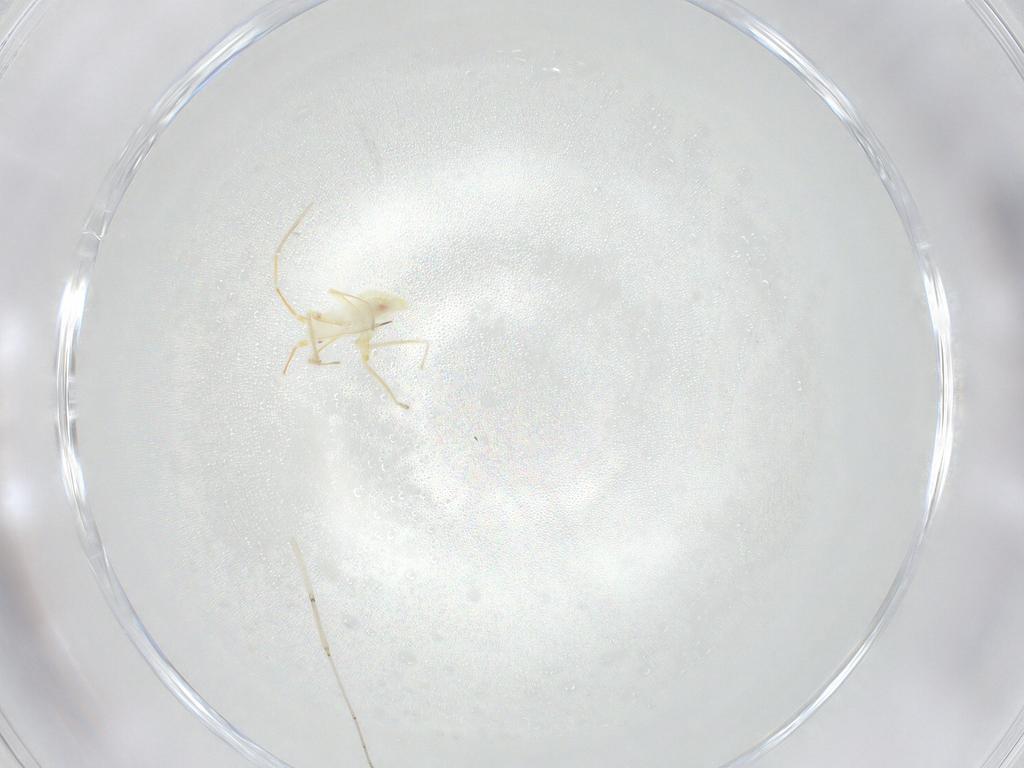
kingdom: Animalia
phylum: Arthropoda
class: Insecta
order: Hemiptera
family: Miridae
